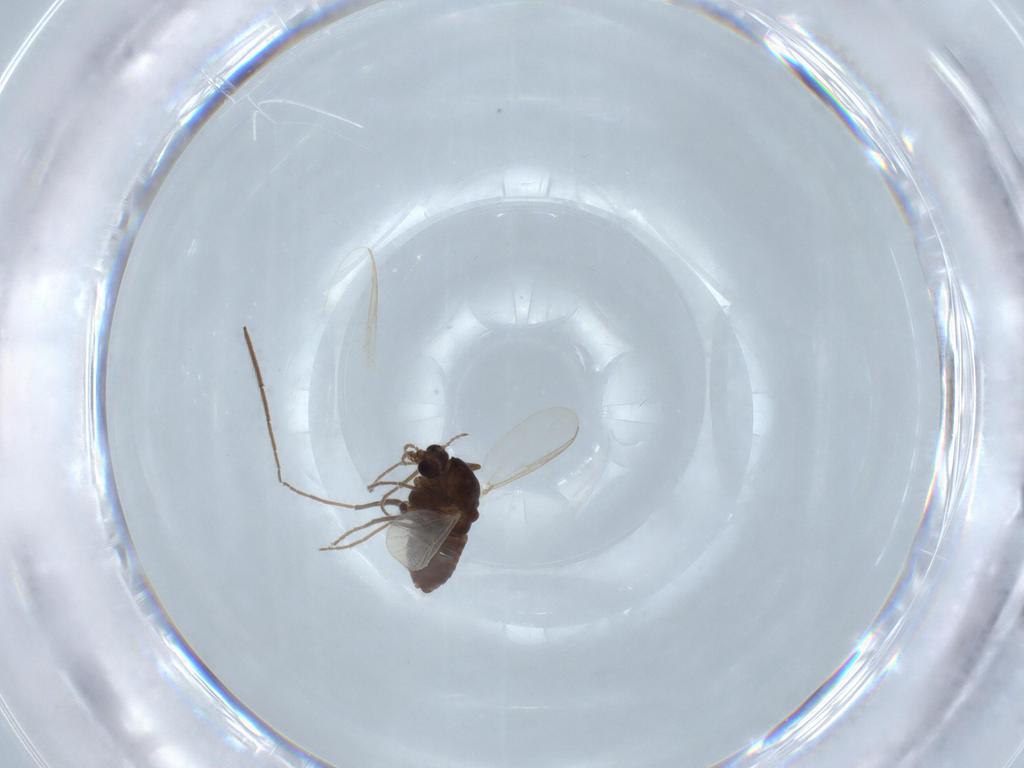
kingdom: Animalia
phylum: Arthropoda
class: Insecta
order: Diptera
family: Chironomidae
